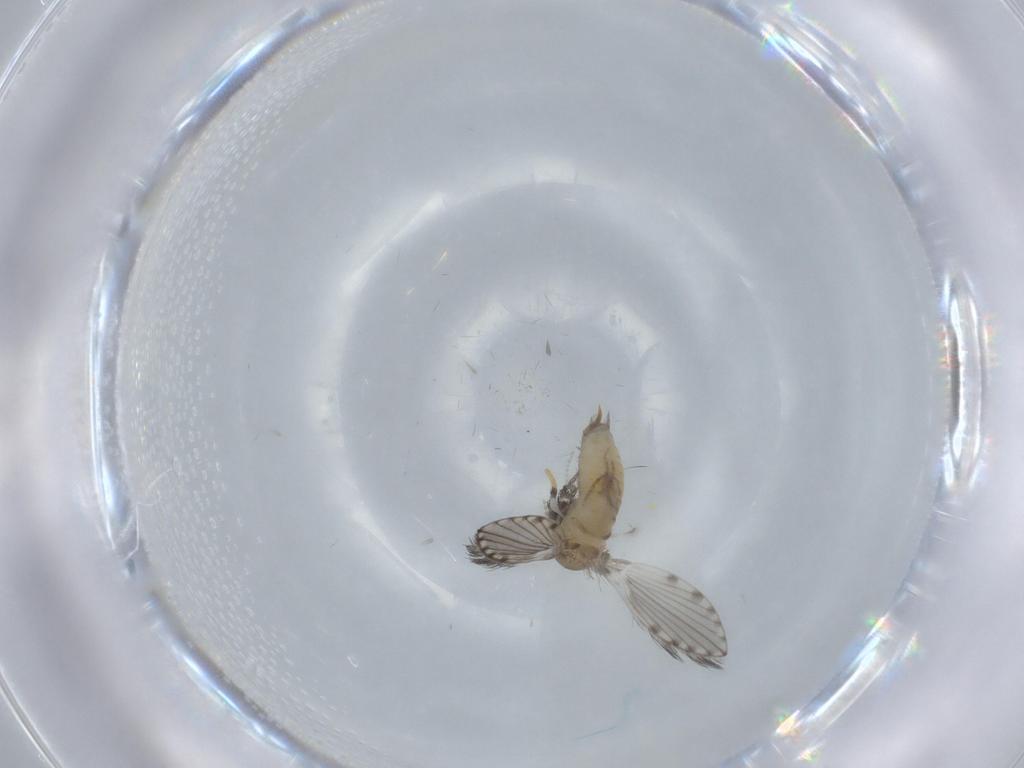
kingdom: Animalia
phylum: Arthropoda
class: Insecta
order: Diptera
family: Psychodidae
